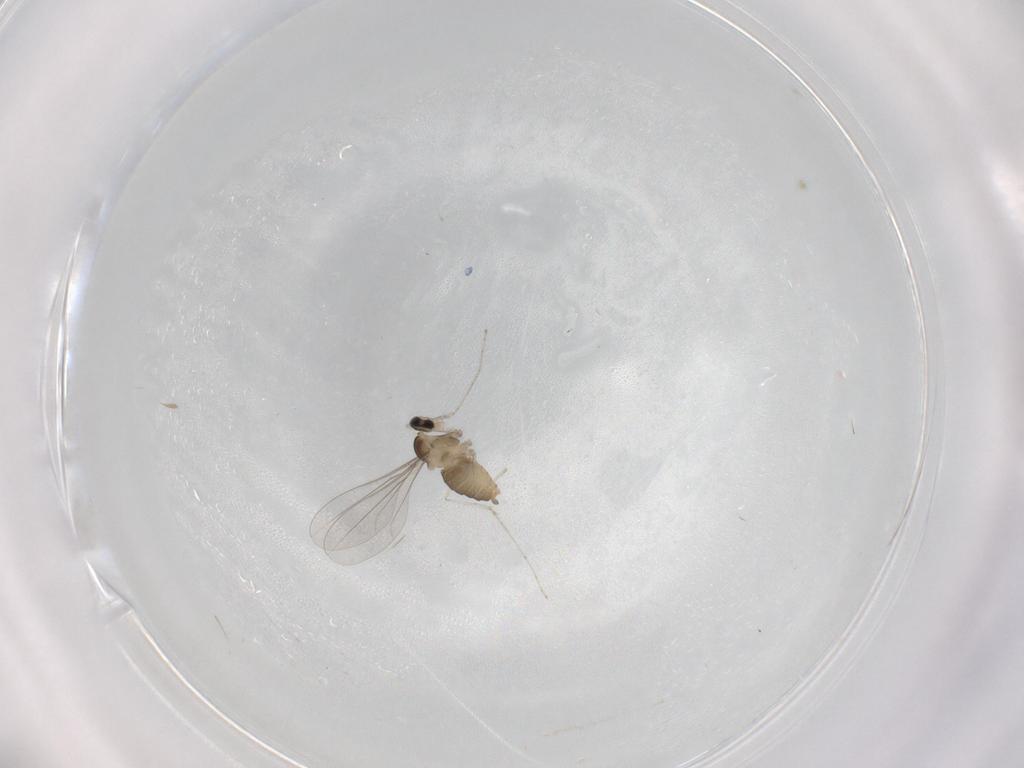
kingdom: Animalia
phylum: Arthropoda
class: Insecta
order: Diptera
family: Cecidomyiidae
